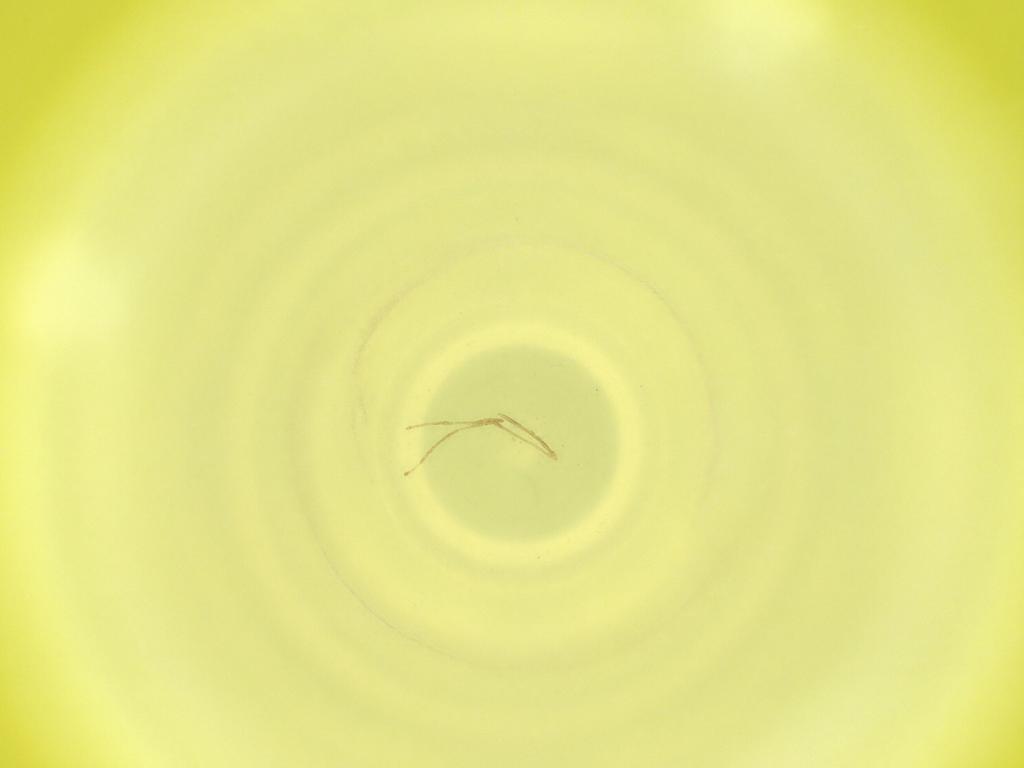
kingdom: Animalia
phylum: Arthropoda
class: Insecta
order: Diptera
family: Cecidomyiidae
